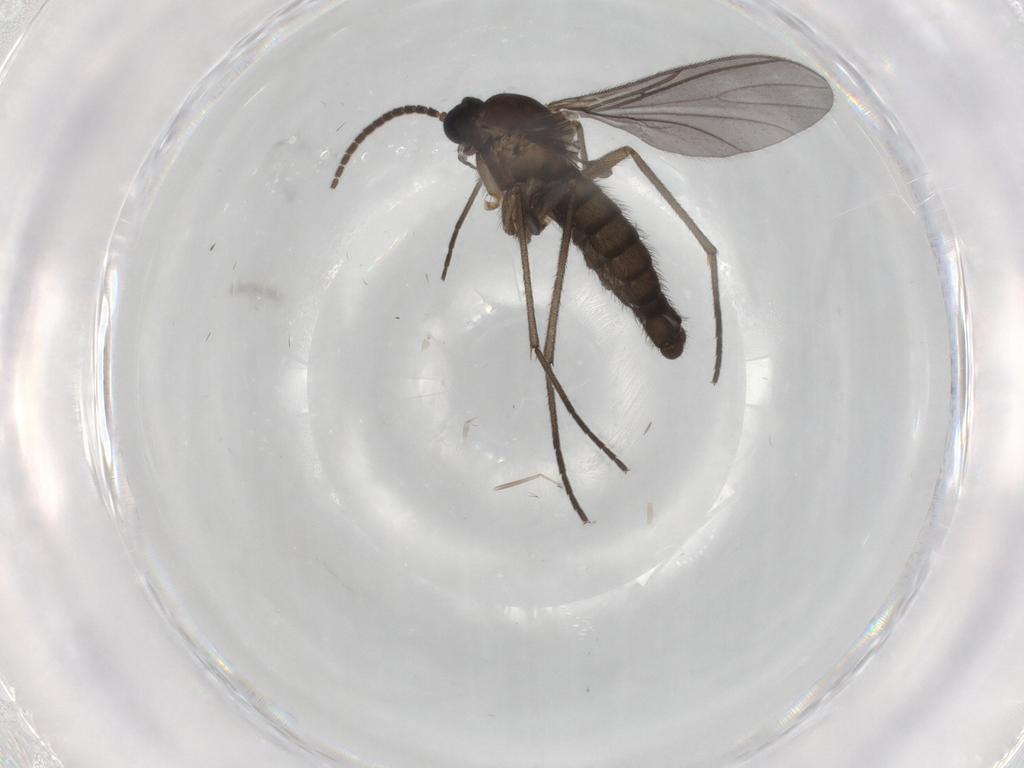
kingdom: Animalia
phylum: Arthropoda
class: Insecta
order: Diptera
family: Sciaridae
